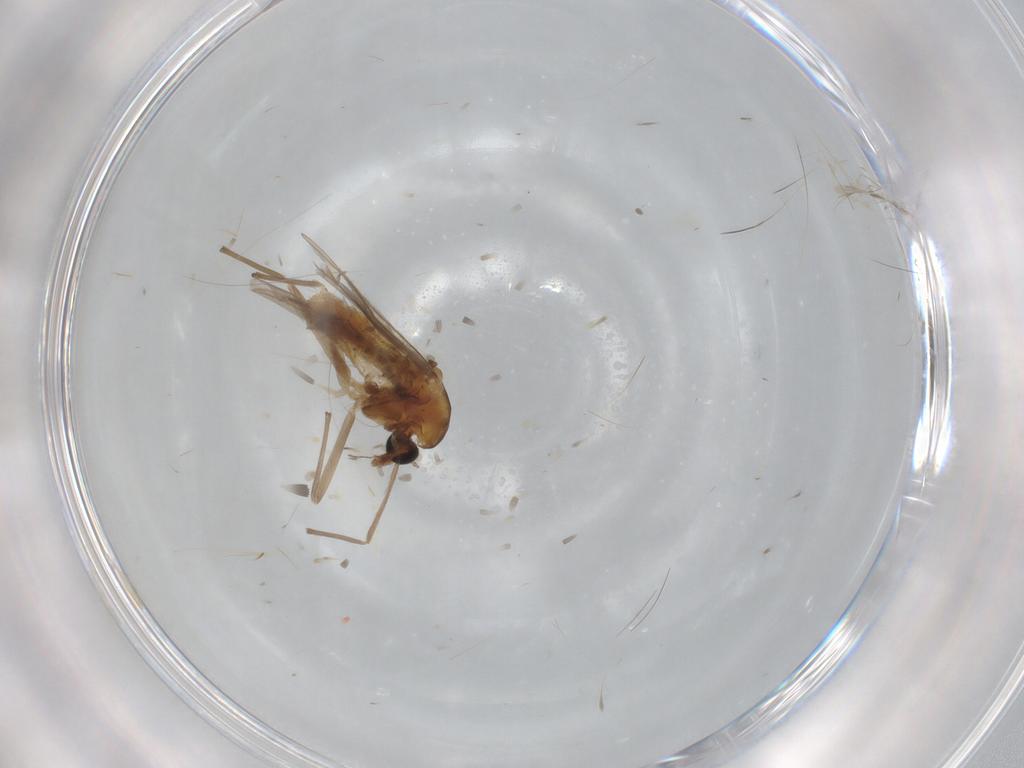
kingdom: Animalia
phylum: Arthropoda
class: Insecta
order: Diptera
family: Chironomidae
